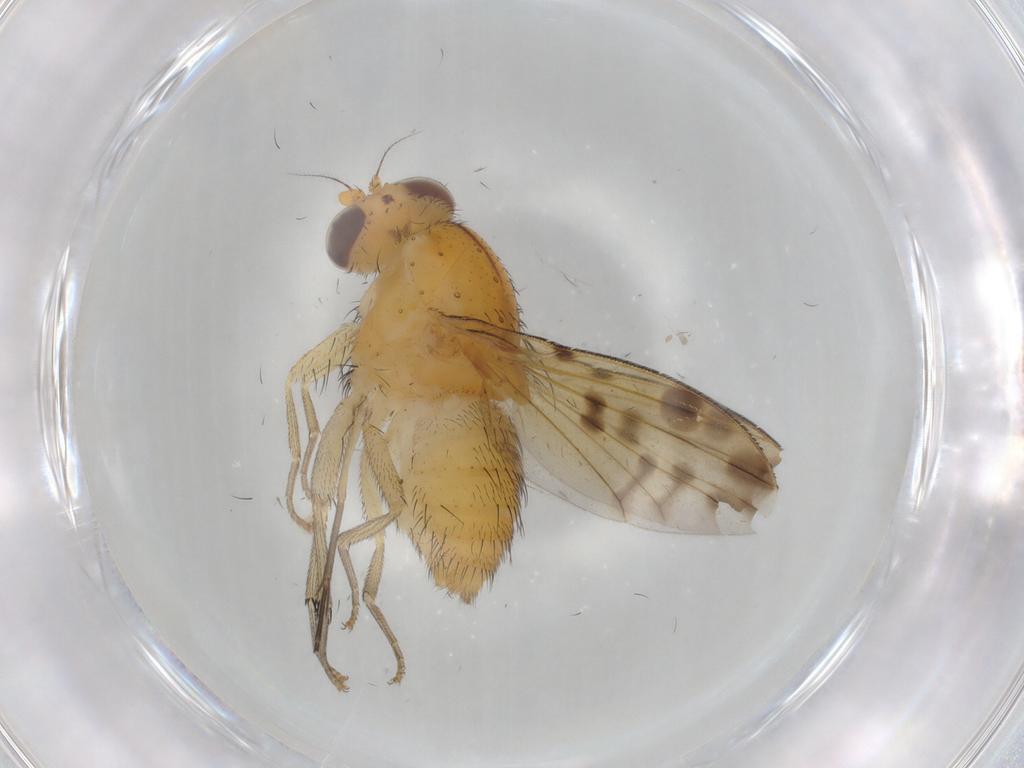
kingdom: Animalia
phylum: Arthropoda
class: Insecta
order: Diptera
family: Mycetophilidae
